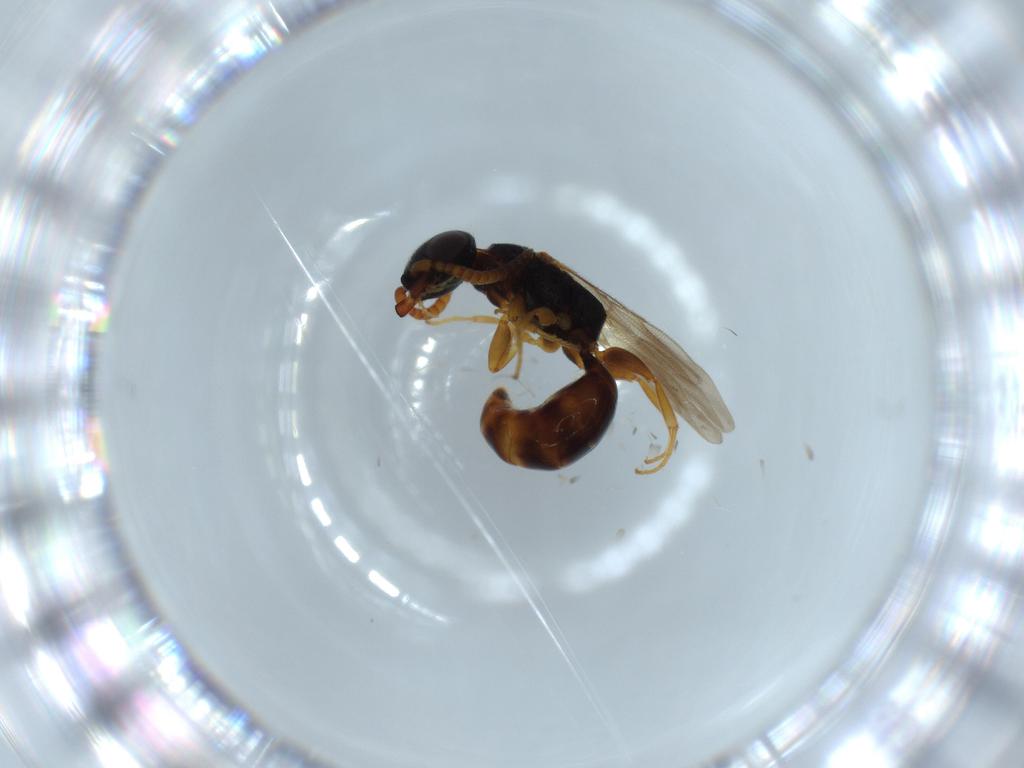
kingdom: Animalia
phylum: Arthropoda
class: Insecta
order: Hymenoptera
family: Bethylidae
